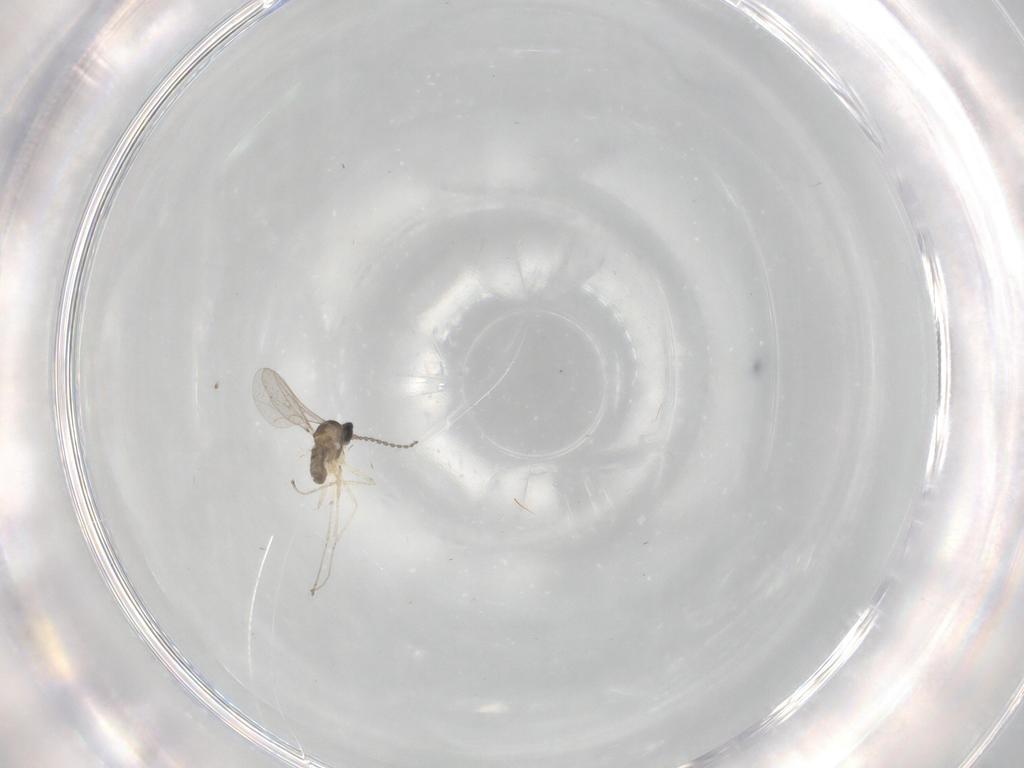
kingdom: Animalia
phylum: Arthropoda
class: Insecta
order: Diptera
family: Cecidomyiidae
